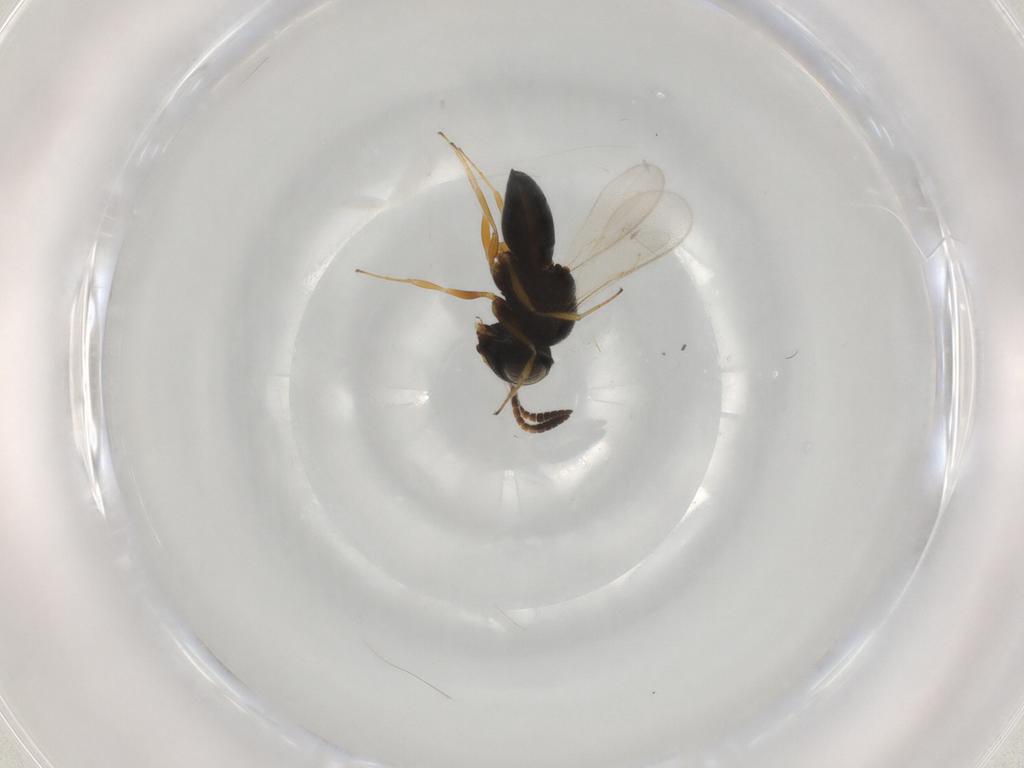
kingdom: Animalia
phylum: Arthropoda
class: Insecta
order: Hymenoptera
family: Scelionidae
